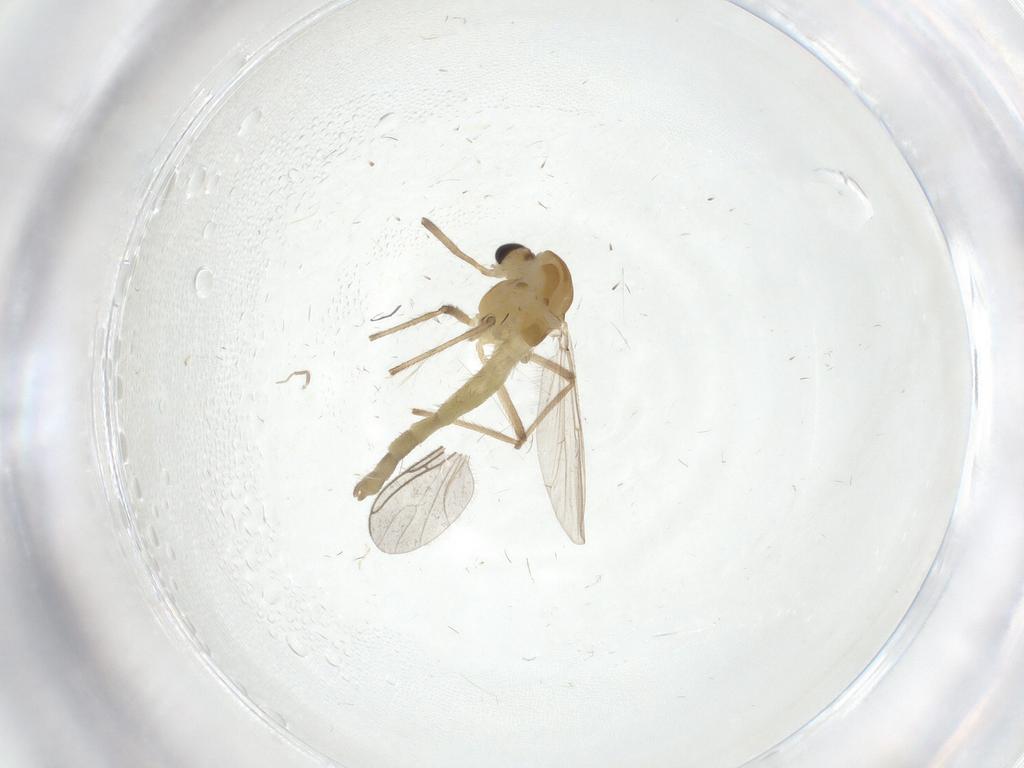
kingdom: Animalia
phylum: Arthropoda
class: Insecta
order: Diptera
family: Chironomidae
